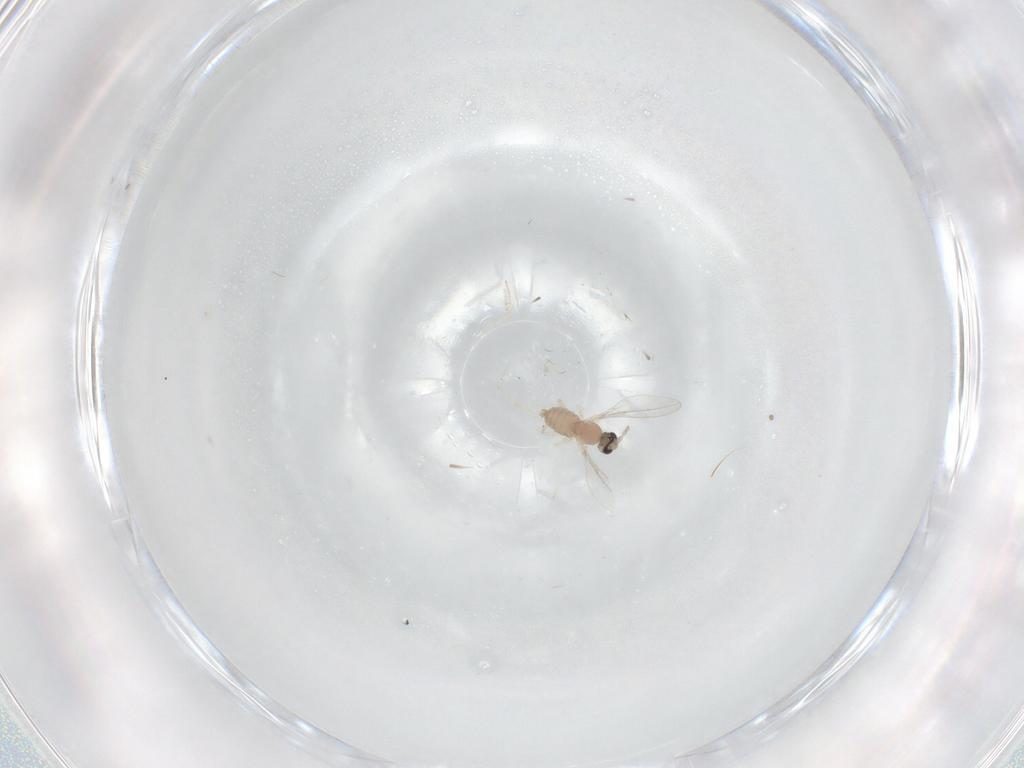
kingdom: Animalia
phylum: Arthropoda
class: Insecta
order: Diptera
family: Cecidomyiidae
